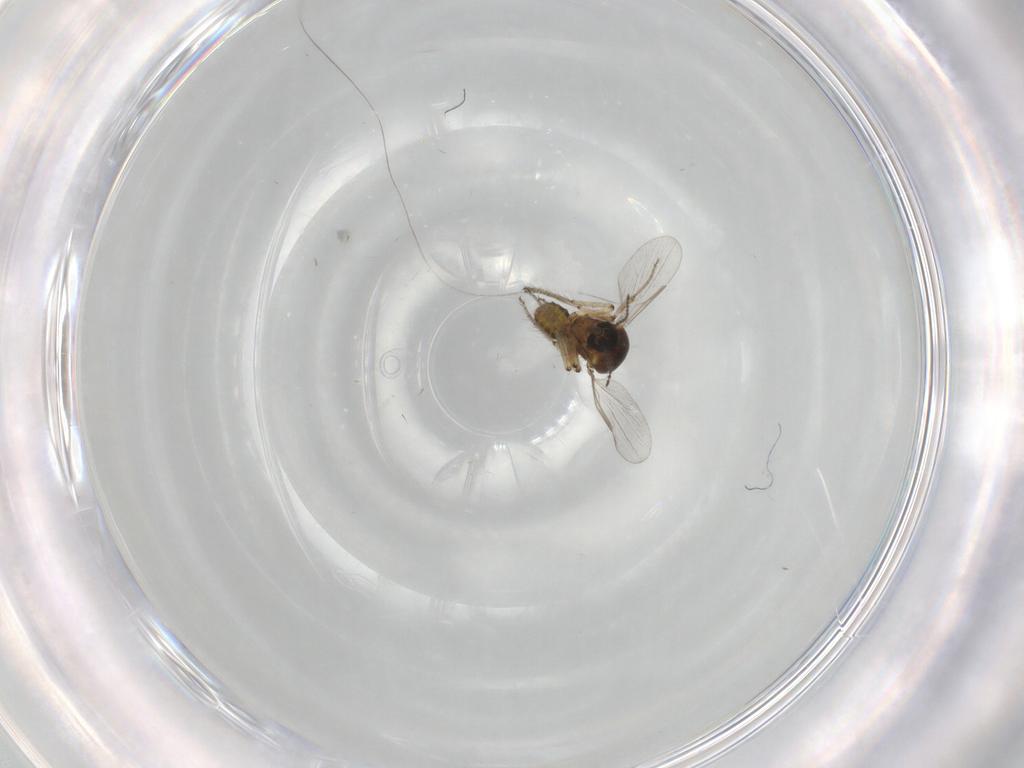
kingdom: Animalia
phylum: Arthropoda
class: Insecta
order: Diptera
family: Ceratopogonidae
